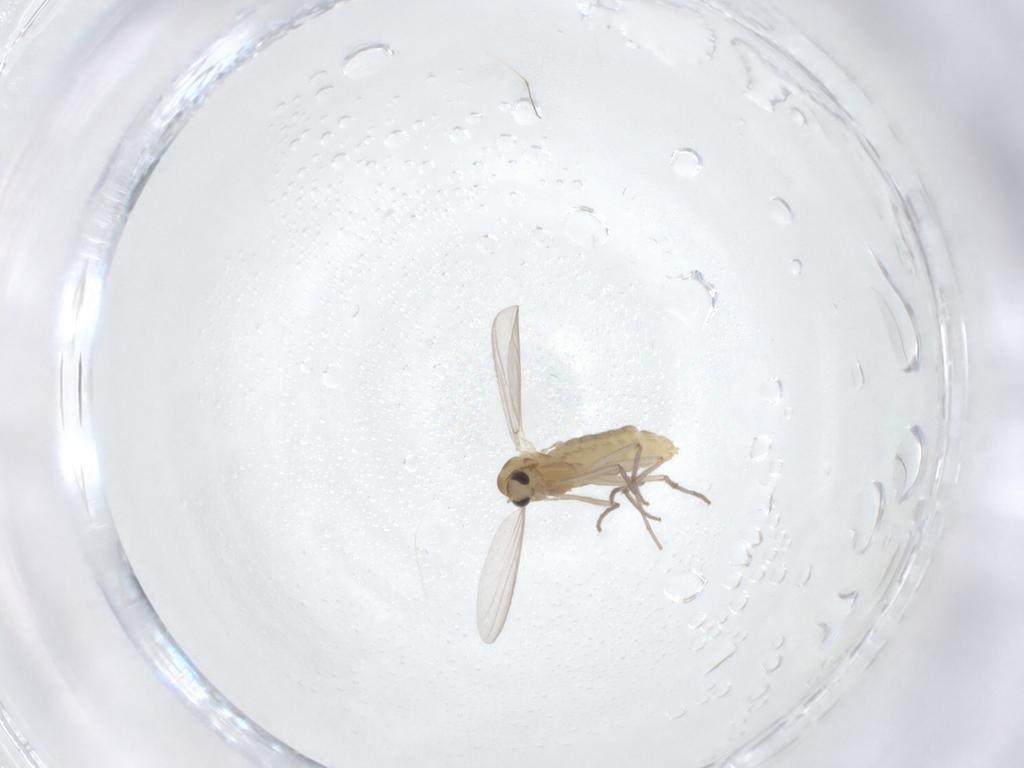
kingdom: Animalia
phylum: Arthropoda
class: Insecta
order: Diptera
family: Chironomidae
